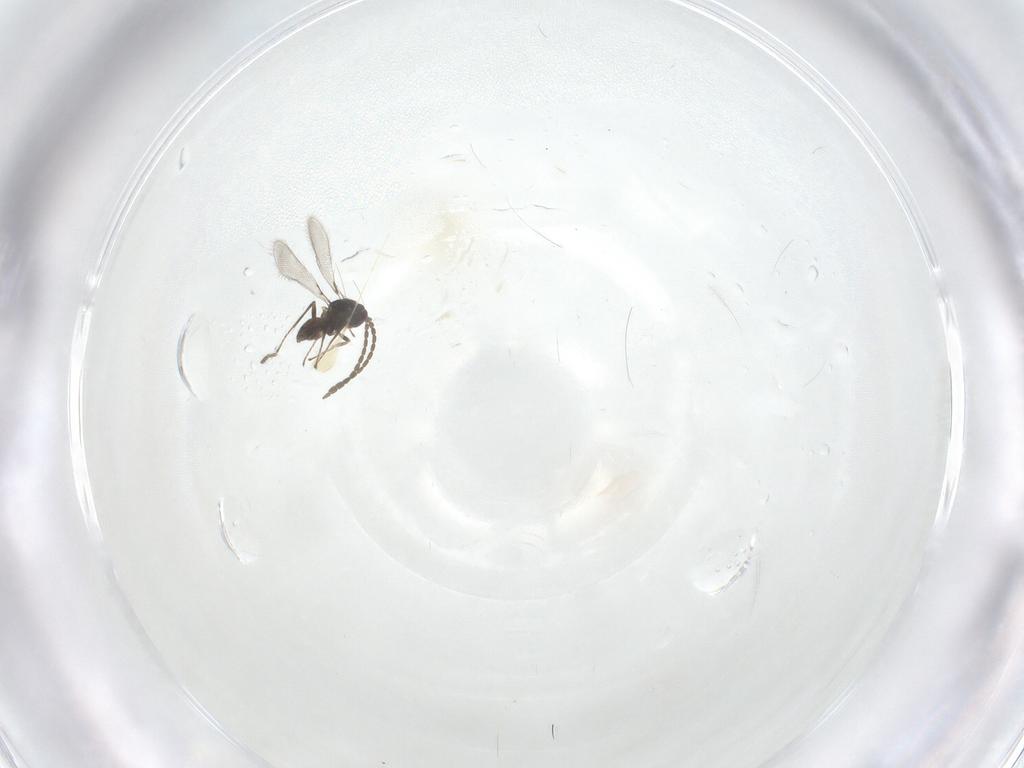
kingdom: Animalia
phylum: Arthropoda
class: Insecta
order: Hymenoptera
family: Mymaridae
